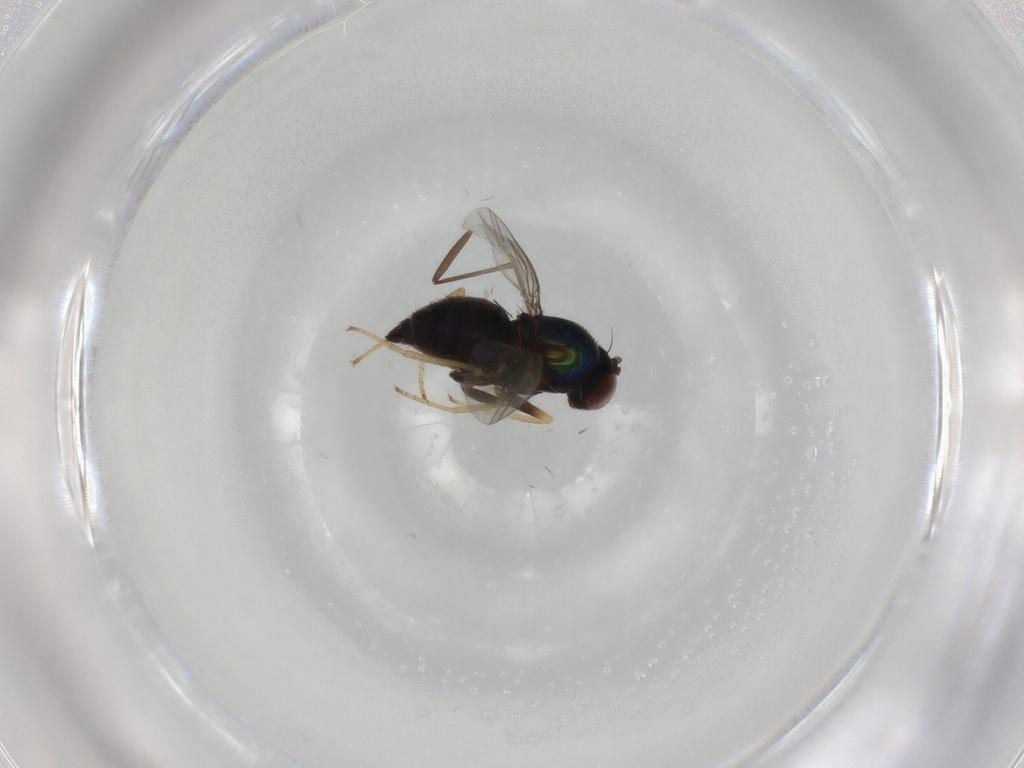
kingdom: Animalia
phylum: Arthropoda
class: Insecta
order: Diptera
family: Dolichopodidae
